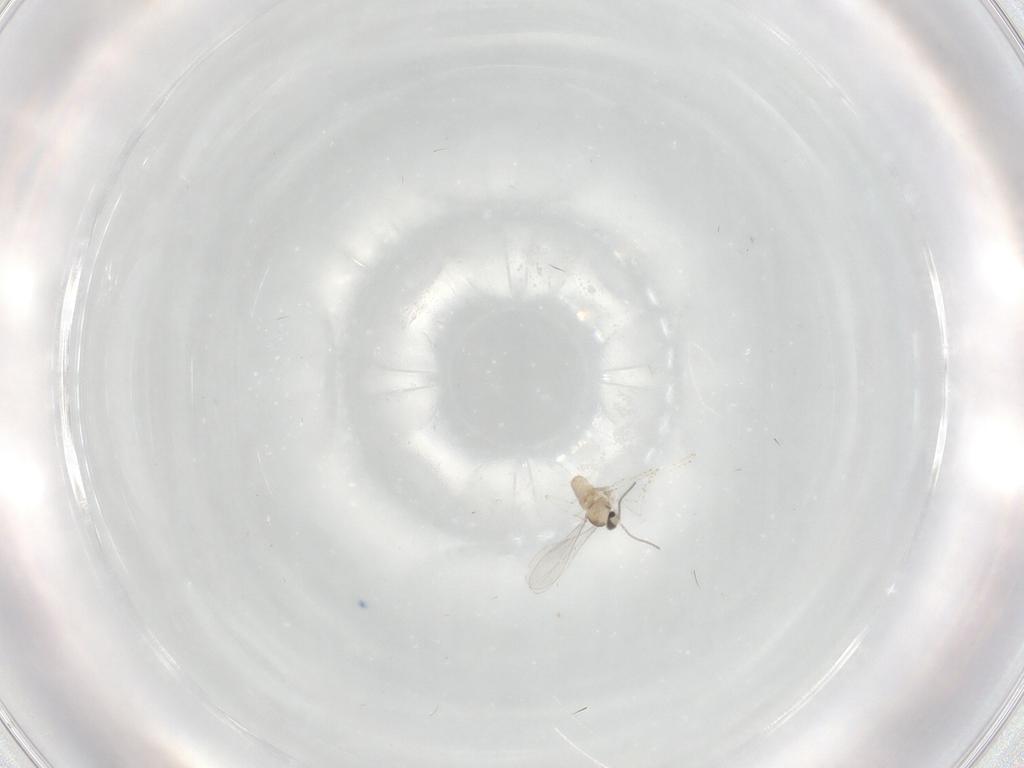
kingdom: Animalia
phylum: Arthropoda
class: Insecta
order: Diptera
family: Cecidomyiidae
